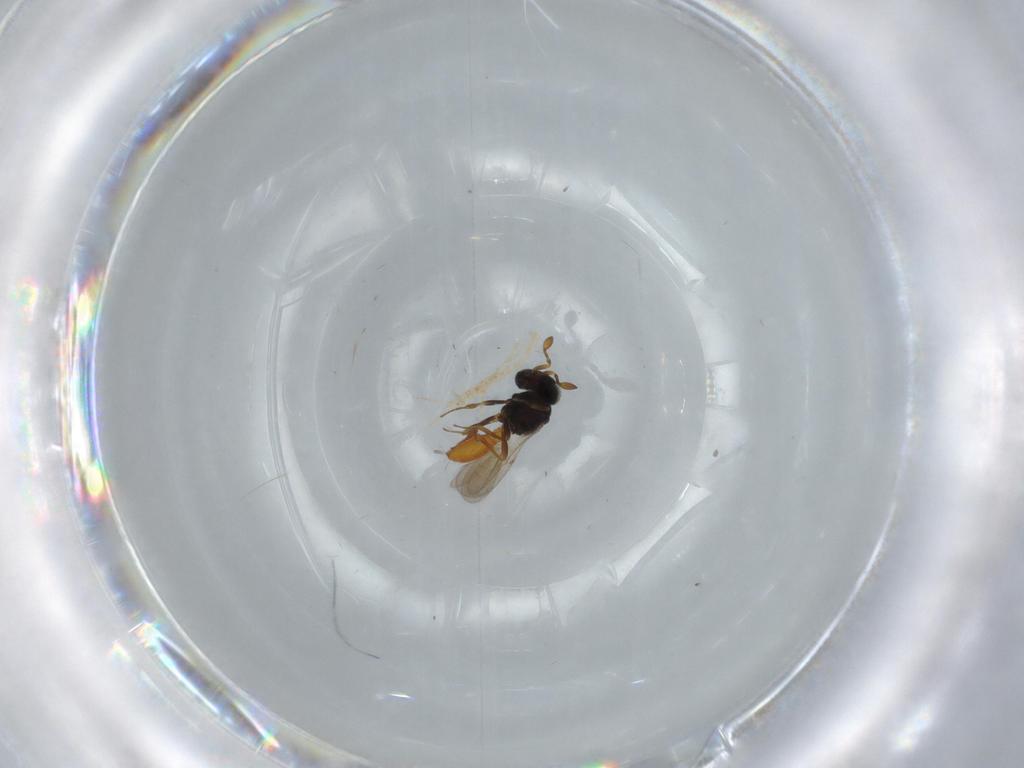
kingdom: Animalia
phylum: Arthropoda
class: Insecta
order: Hymenoptera
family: Scelionidae
